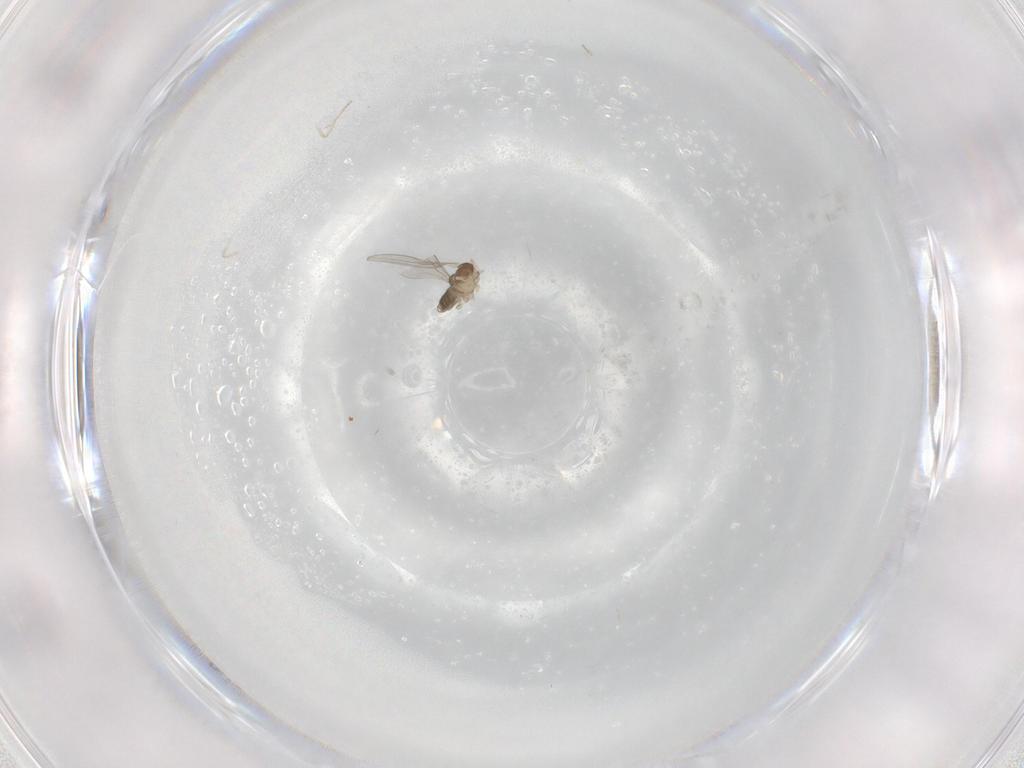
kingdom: Animalia
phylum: Arthropoda
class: Insecta
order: Diptera
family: Cecidomyiidae
